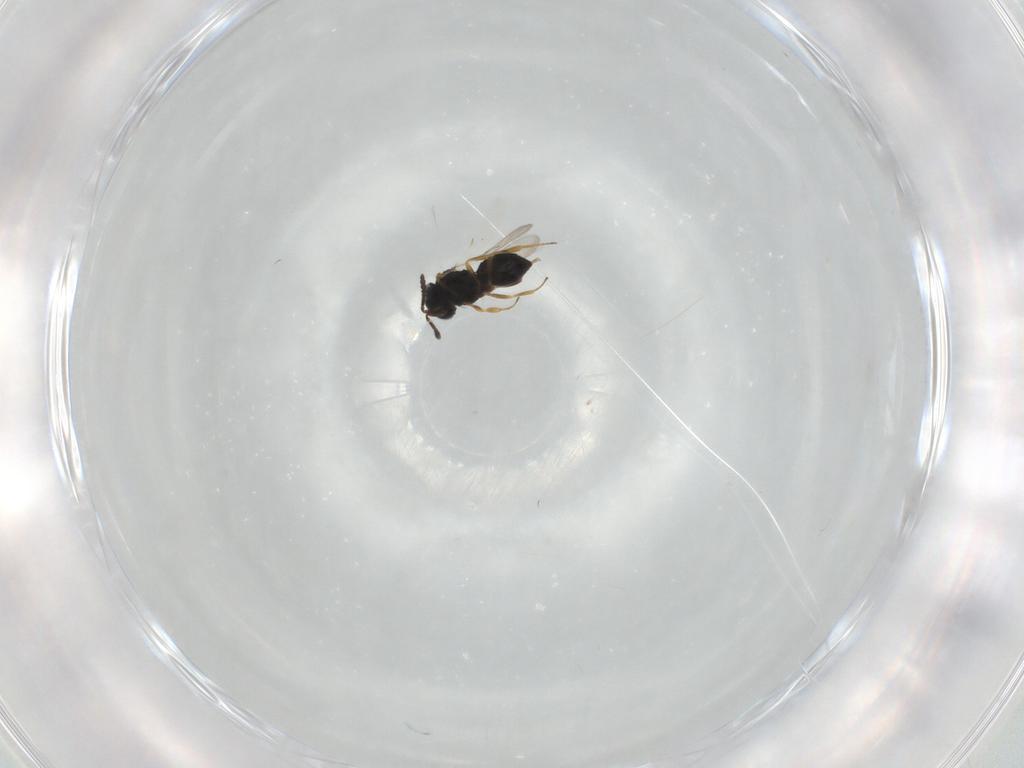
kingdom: Animalia
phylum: Arthropoda
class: Insecta
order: Hymenoptera
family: Scelionidae
